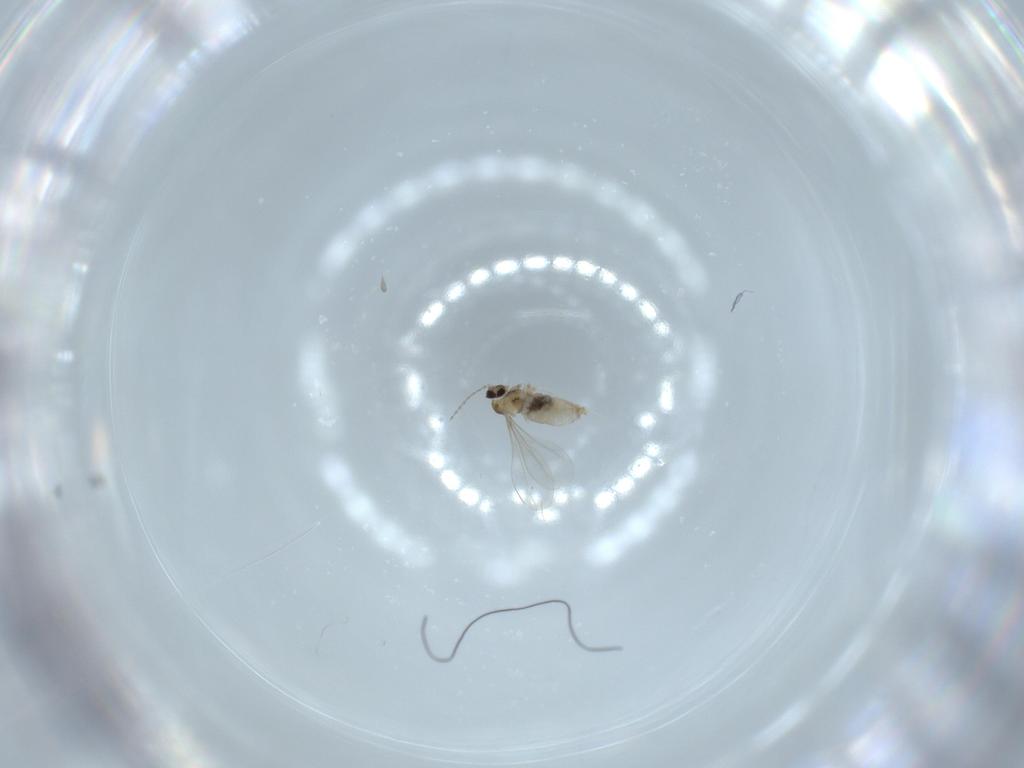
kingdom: Animalia
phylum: Arthropoda
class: Insecta
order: Diptera
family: Cecidomyiidae
